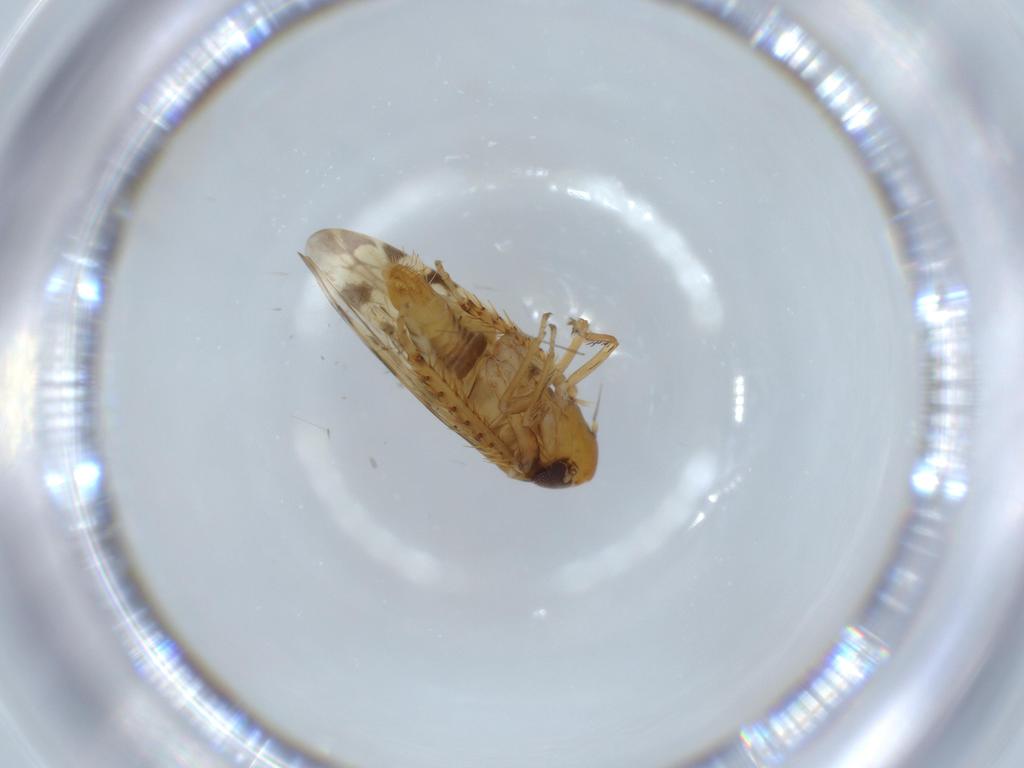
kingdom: Animalia
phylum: Arthropoda
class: Insecta
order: Hemiptera
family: Cicadellidae
